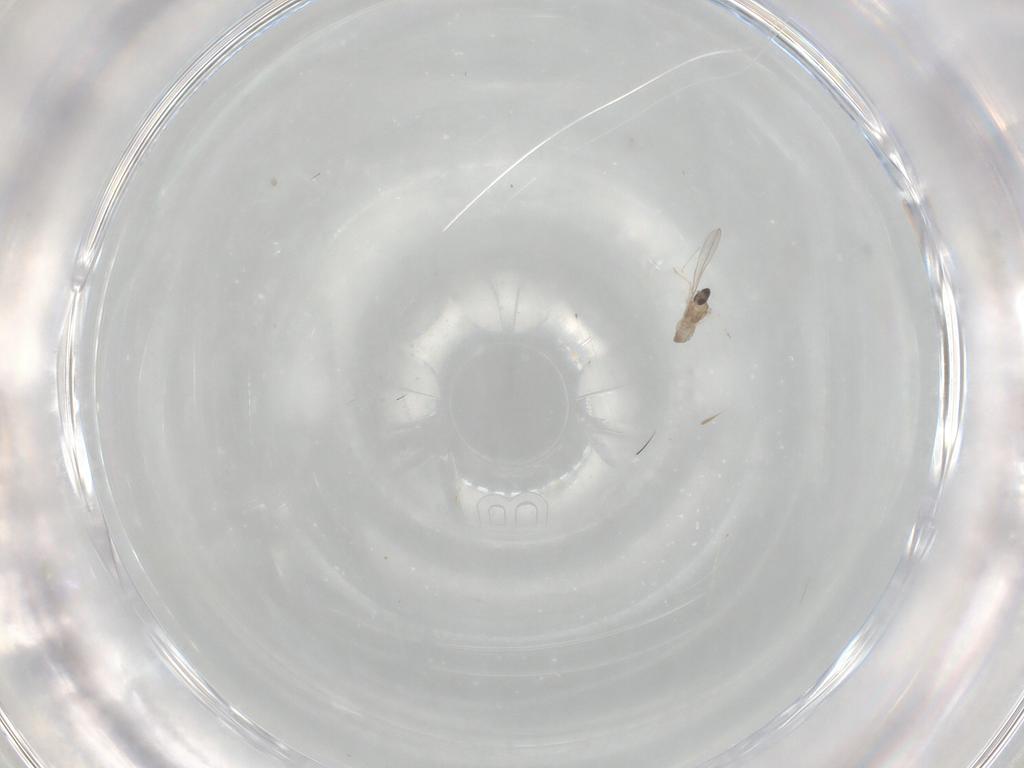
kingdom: Animalia
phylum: Arthropoda
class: Insecta
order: Diptera
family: Cecidomyiidae
